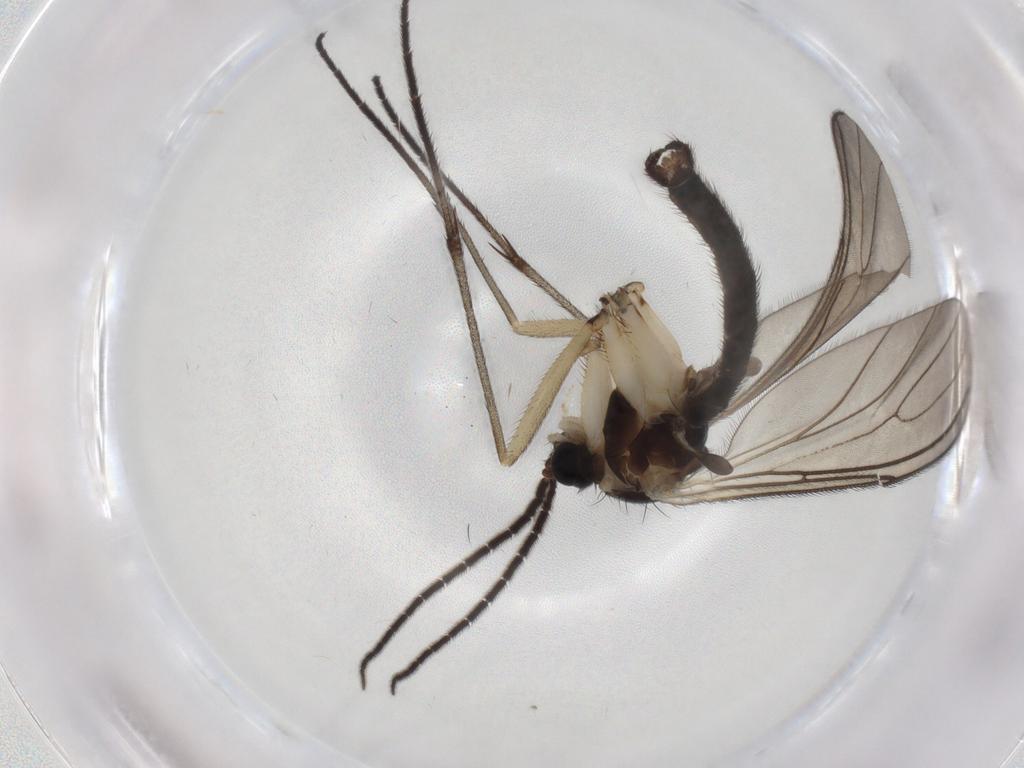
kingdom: Animalia
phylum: Arthropoda
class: Insecta
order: Diptera
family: Sciaridae
